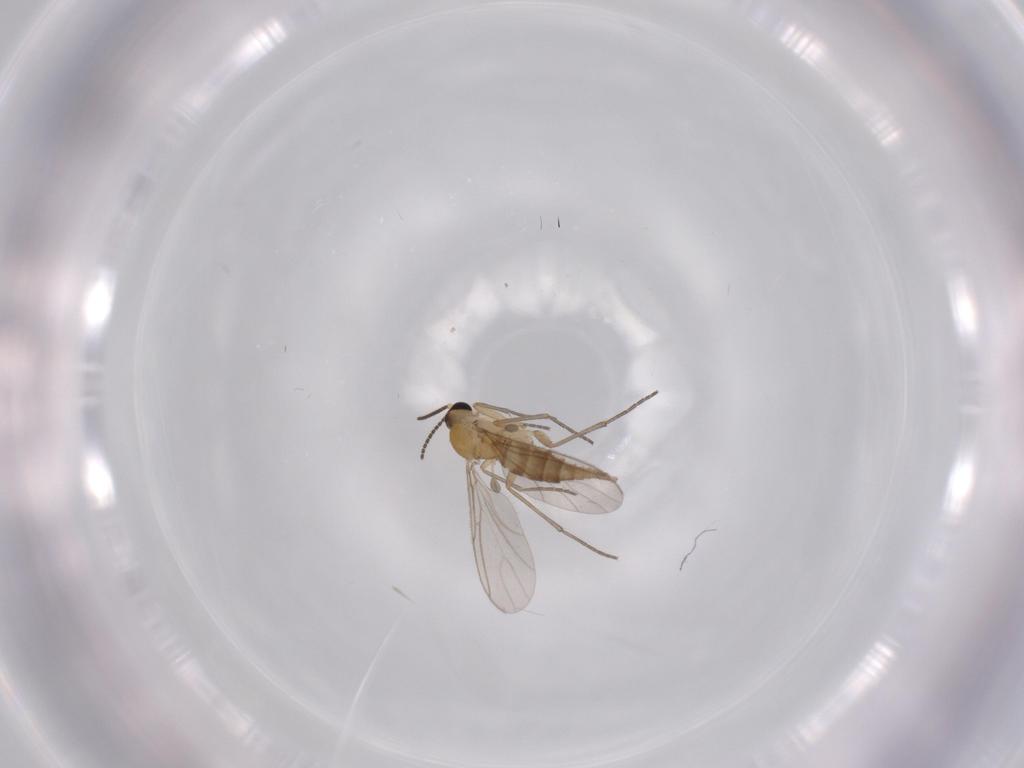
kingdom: Animalia
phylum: Arthropoda
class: Insecta
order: Diptera
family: Sciaridae
